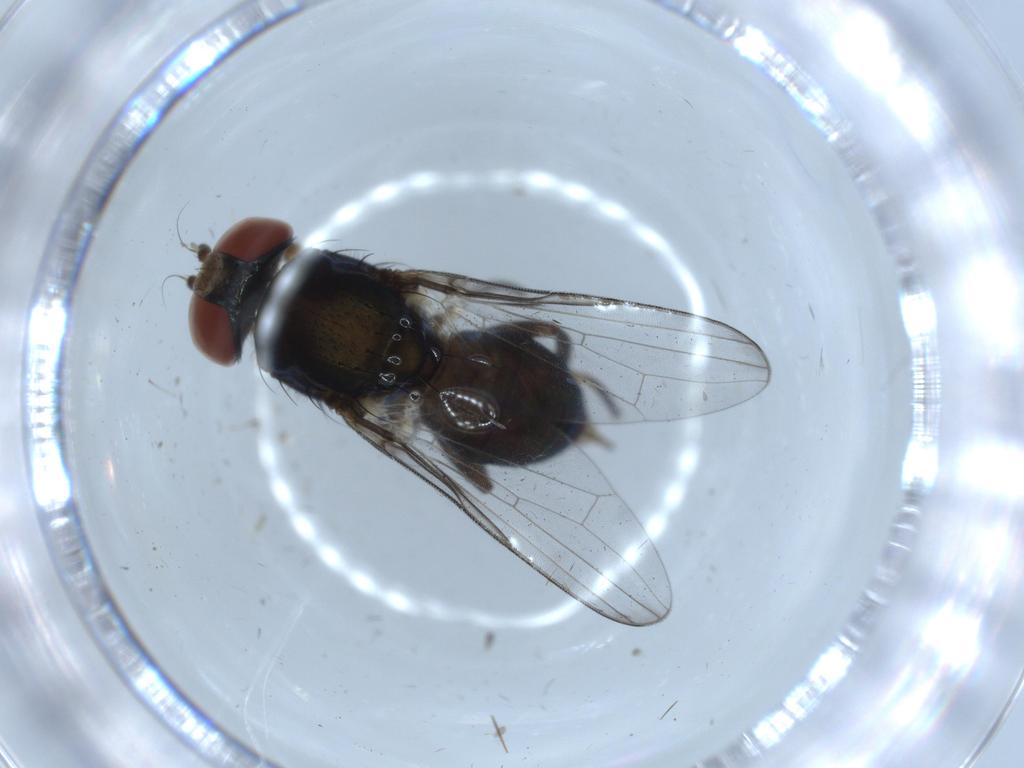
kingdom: Animalia
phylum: Arthropoda
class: Insecta
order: Diptera
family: Ulidiidae
